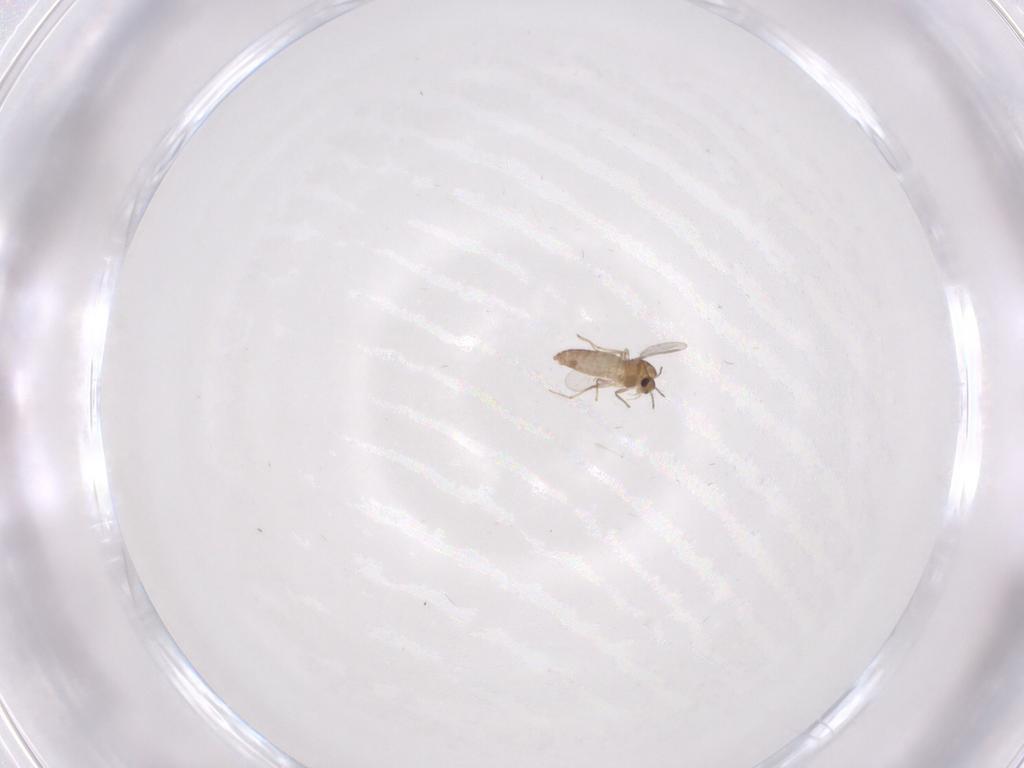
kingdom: Animalia
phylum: Arthropoda
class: Insecta
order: Diptera
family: Chironomidae
